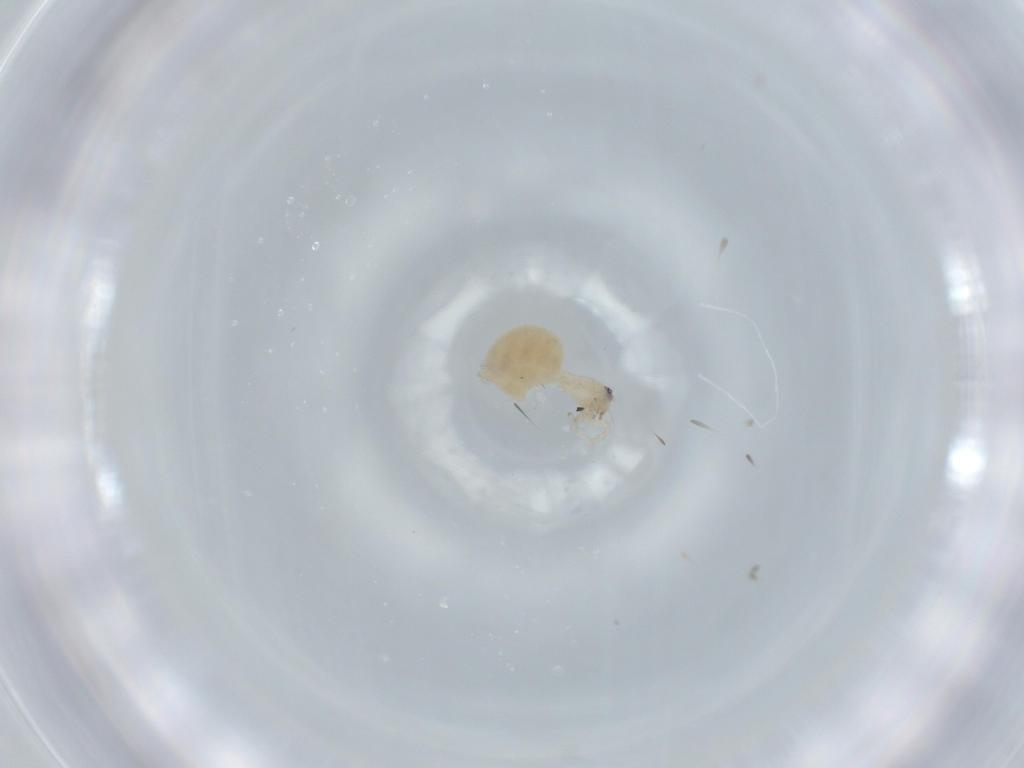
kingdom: Animalia
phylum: Arthropoda
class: Arachnida
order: Araneae
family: Oonopidae
